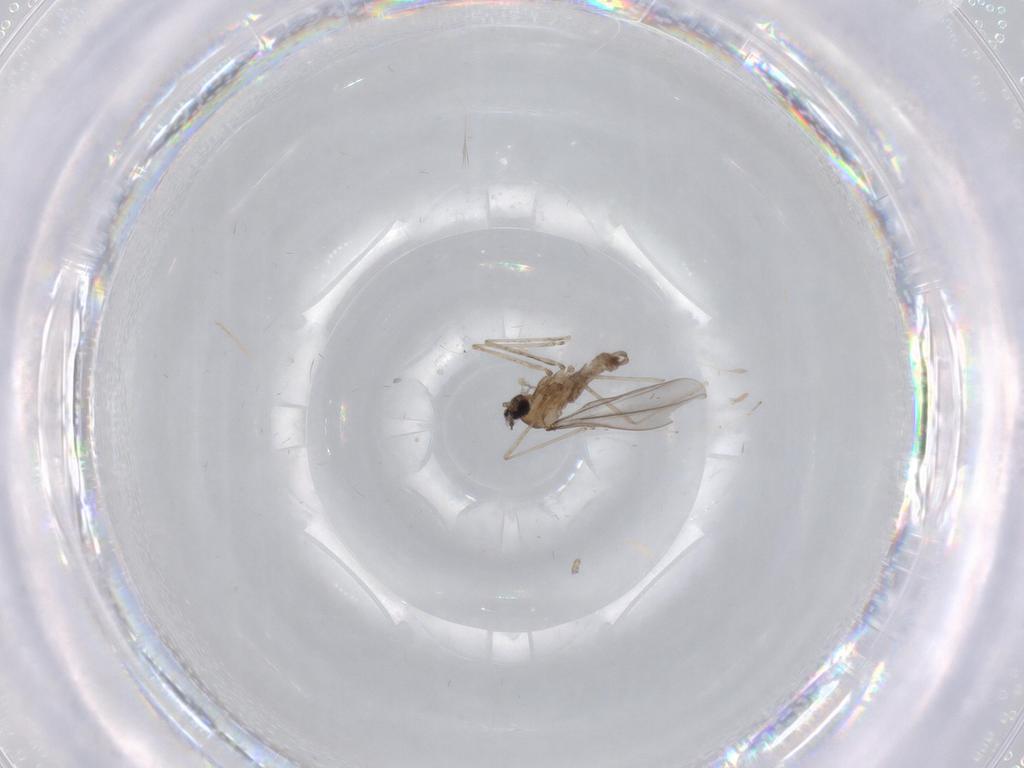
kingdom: Animalia
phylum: Arthropoda
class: Insecta
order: Diptera
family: Cecidomyiidae
